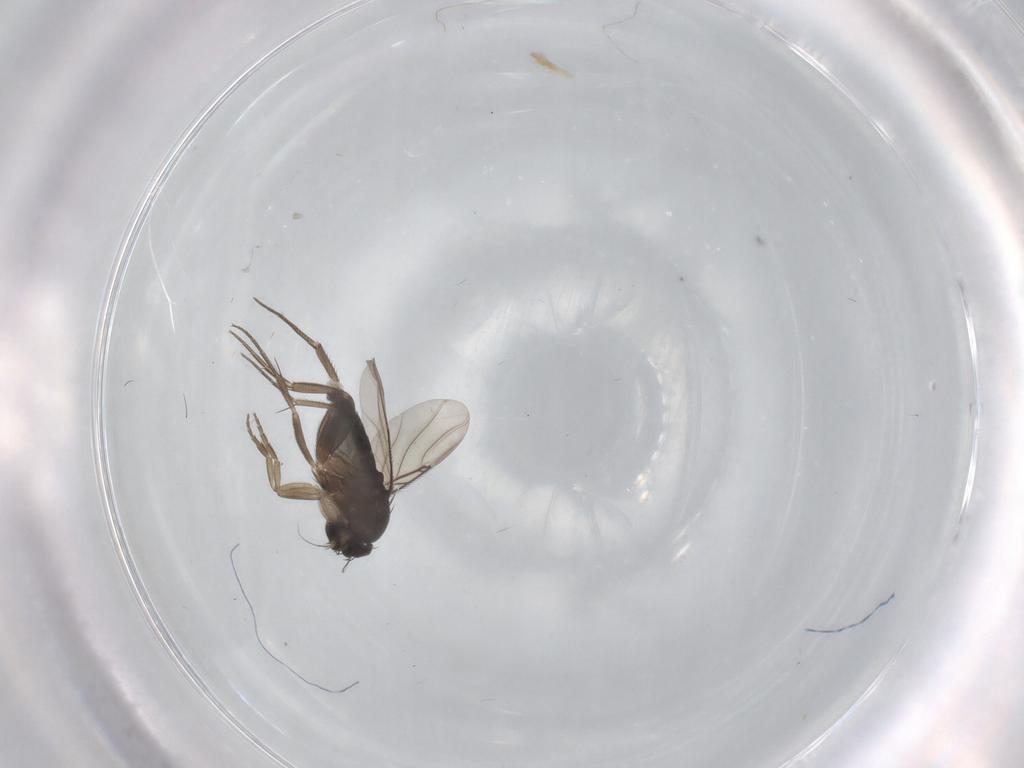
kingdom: Animalia
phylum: Arthropoda
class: Insecta
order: Diptera
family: Phoridae
